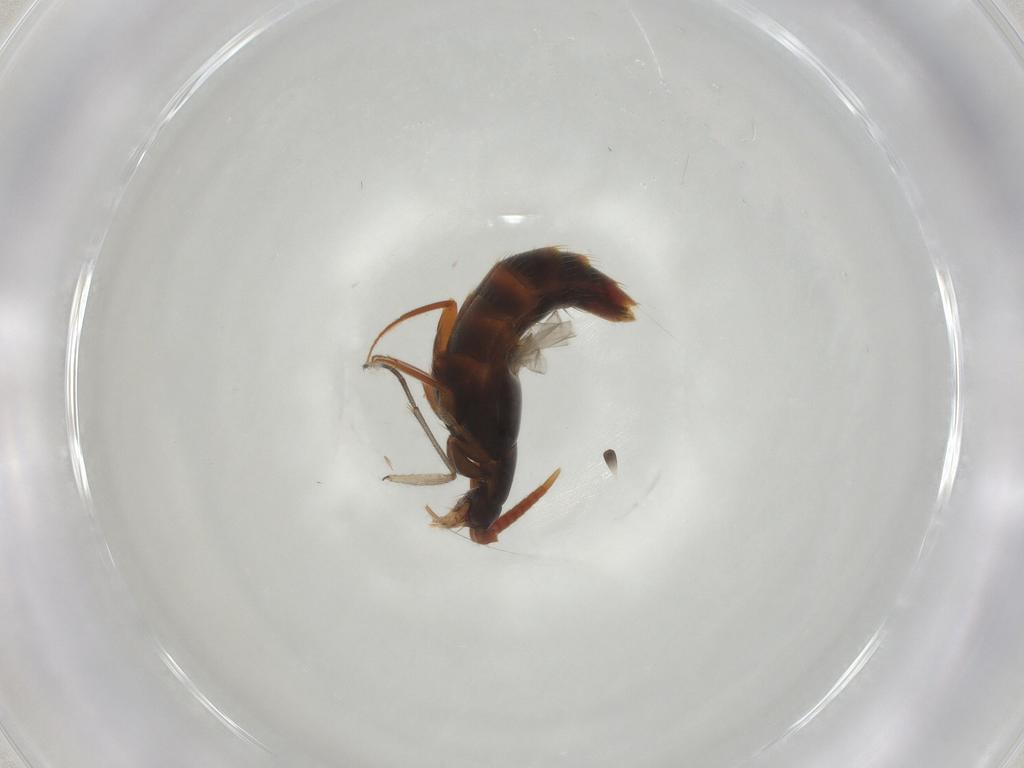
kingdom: Animalia
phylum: Arthropoda
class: Insecta
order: Coleoptera
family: Staphylinidae
